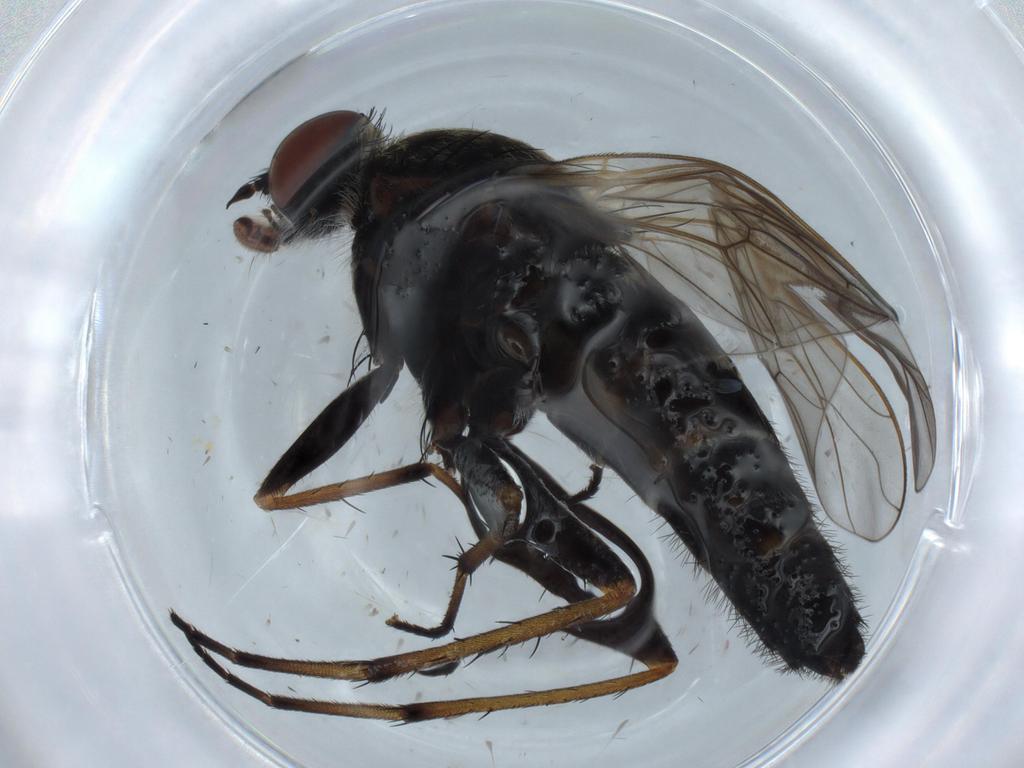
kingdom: Animalia
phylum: Arthropoda
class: Insecta
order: Diptera
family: Therevidae
